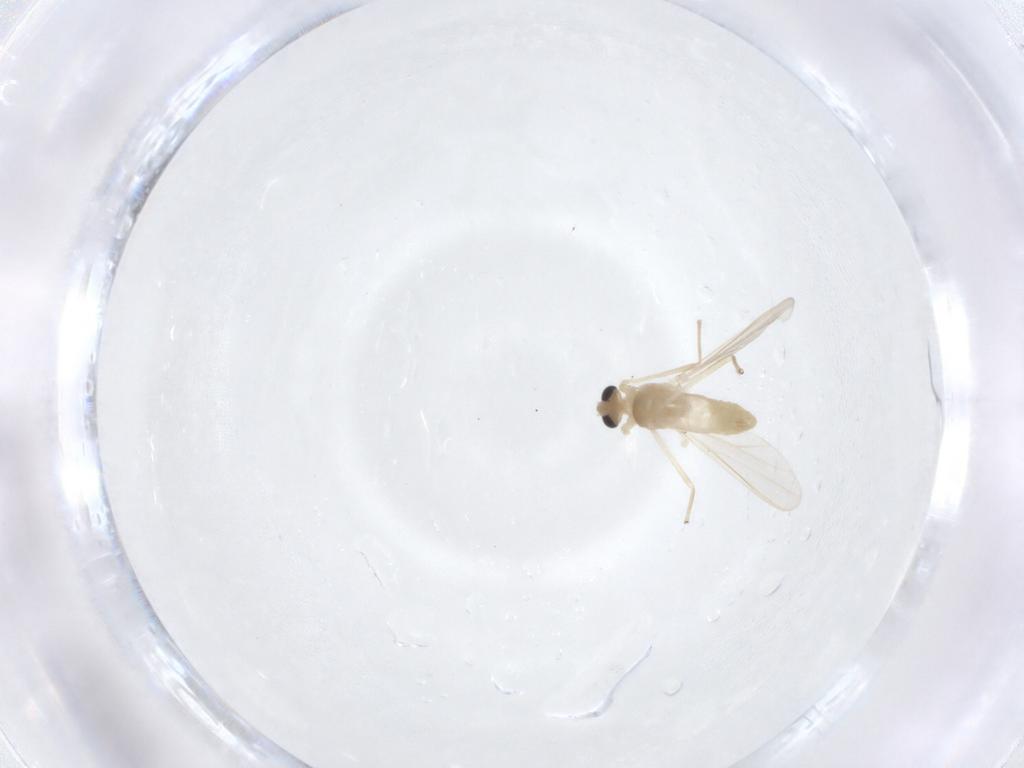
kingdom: Animalia
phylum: Arthropoda
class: Insecta
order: Diptera
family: Chironomidae
